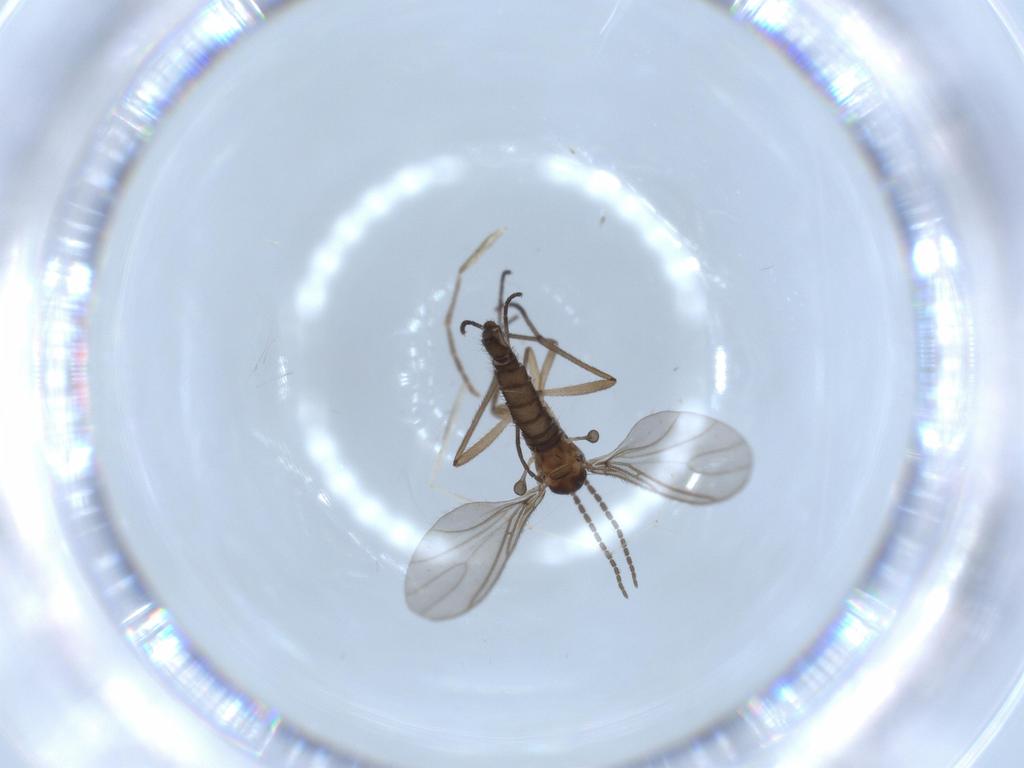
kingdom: Animalia
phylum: Arthropoda
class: Insecta
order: Diptera
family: Sciaridae
